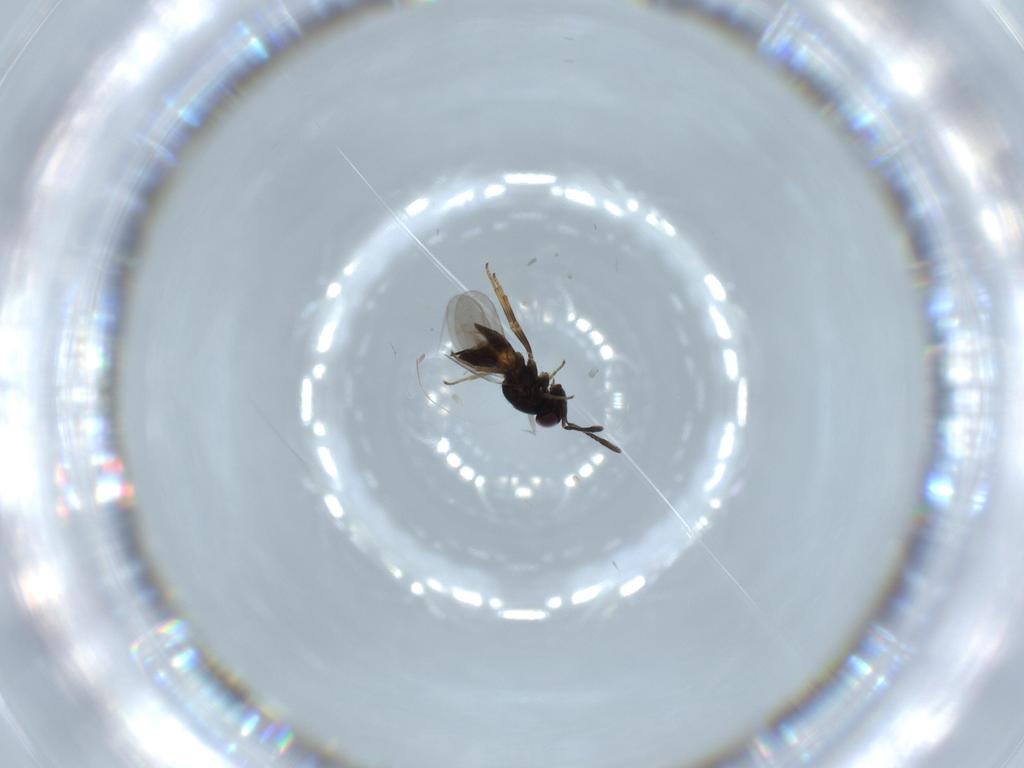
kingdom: Animalia
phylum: Arthropoda
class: Insecta
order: Hymenoptera
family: Encyrtidae
